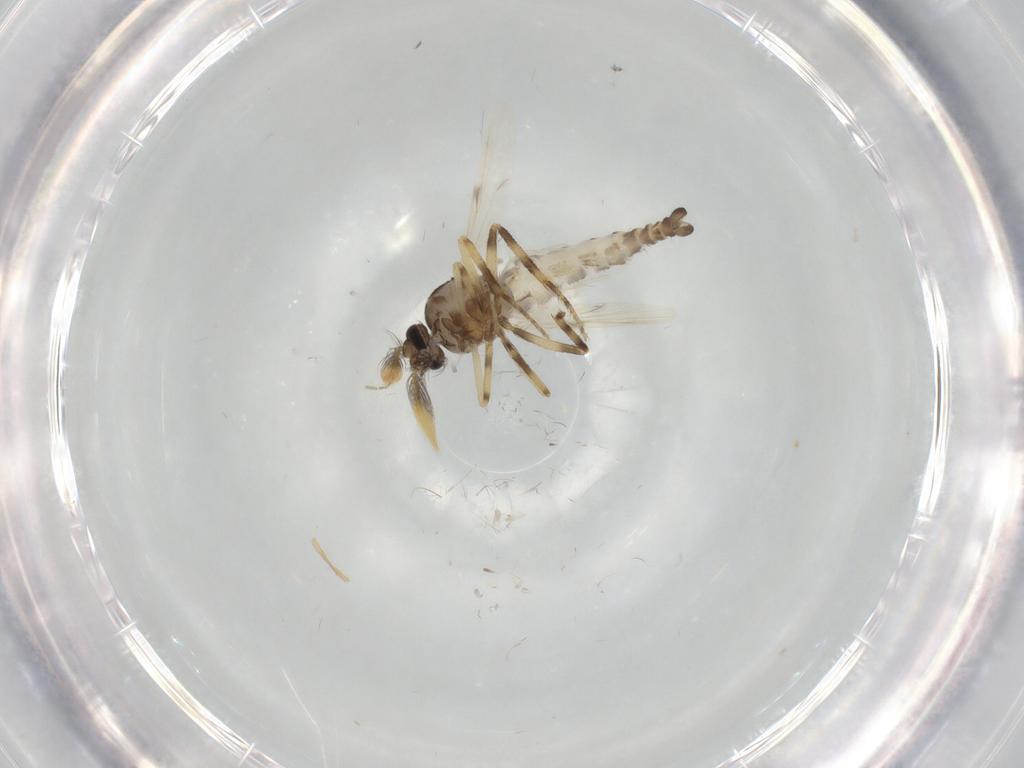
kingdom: Animalia
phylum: Arthropoda
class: Insecta
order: Diptera
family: Ceratopogonidae
